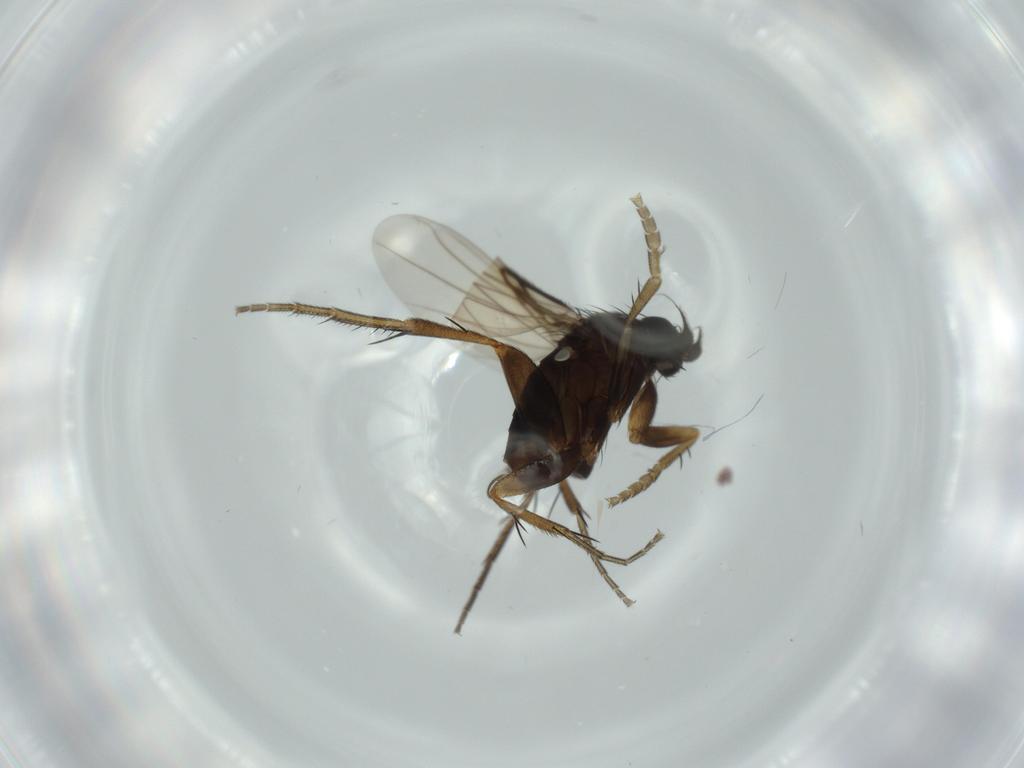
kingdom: Animalia
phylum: Arthropoda
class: Insecta
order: Diptera
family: Phoridae
